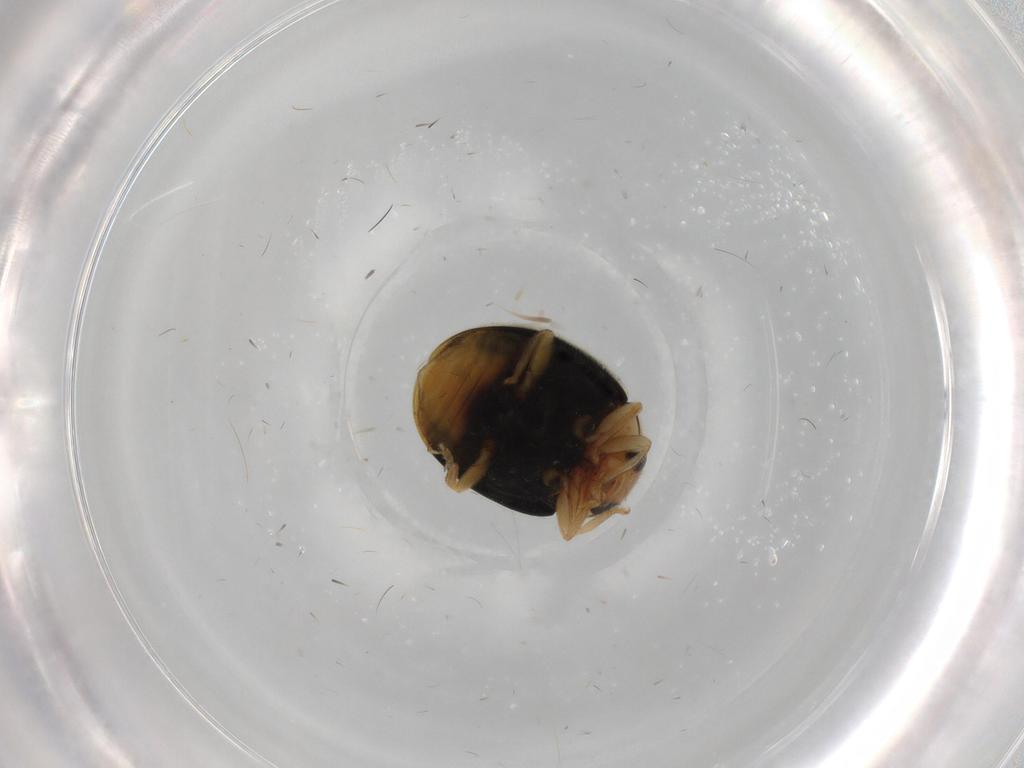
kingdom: Animalia
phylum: Arthropoda
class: Insecta
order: Coleoptera
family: Coccinellidae
